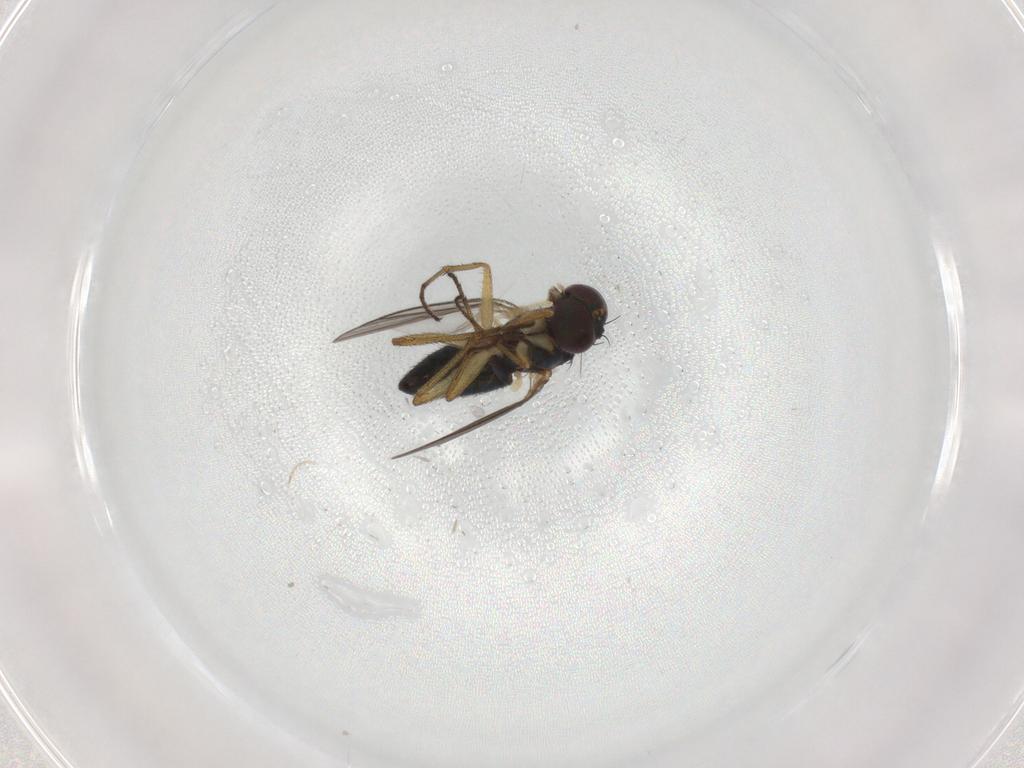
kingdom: Animalia
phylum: Arthropoda
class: Insecta
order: Diptera
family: Chironomidae
